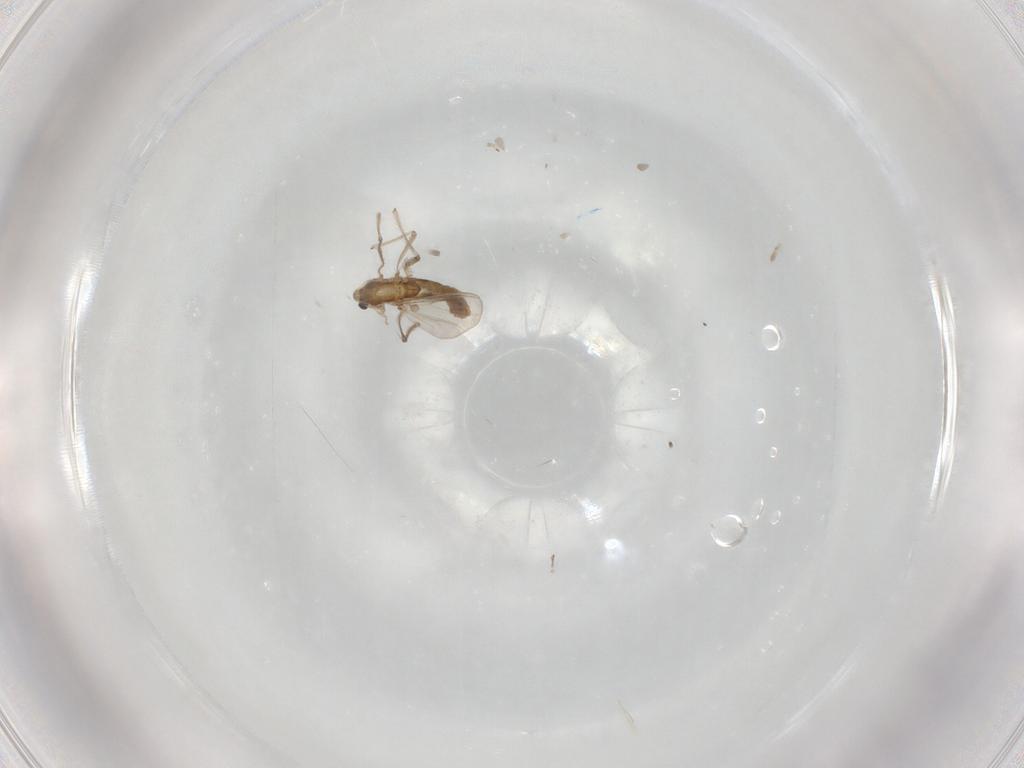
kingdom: Animalia
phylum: Arthropoda
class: Insecta
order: Diptera
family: Chironomidae
